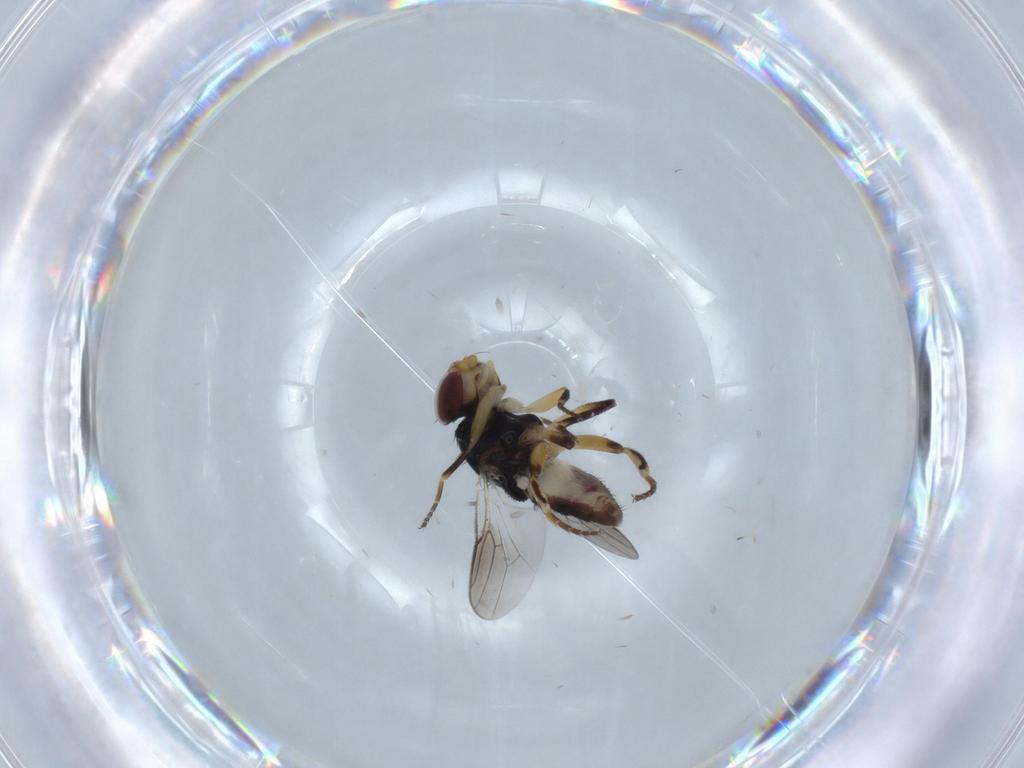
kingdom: Animalia
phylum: Arthropoda
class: Insecta
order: Diptera
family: Chloropidae
